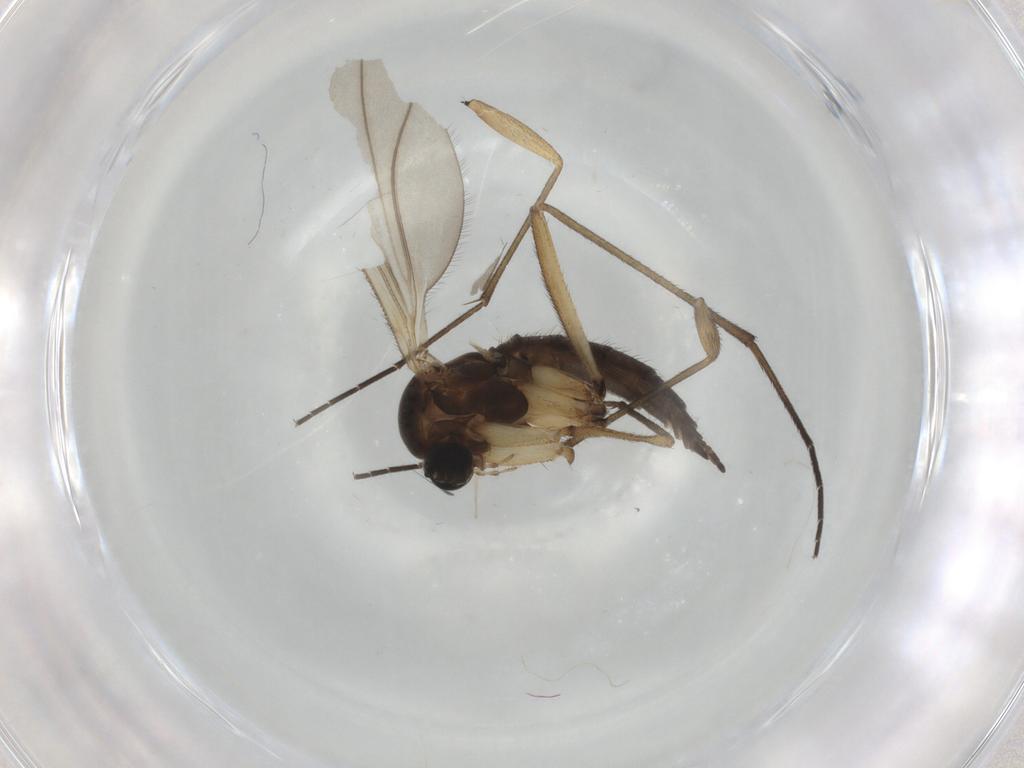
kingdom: Animalia
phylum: Arthropoda
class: Insecta
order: Diptera
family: Sciaridae
